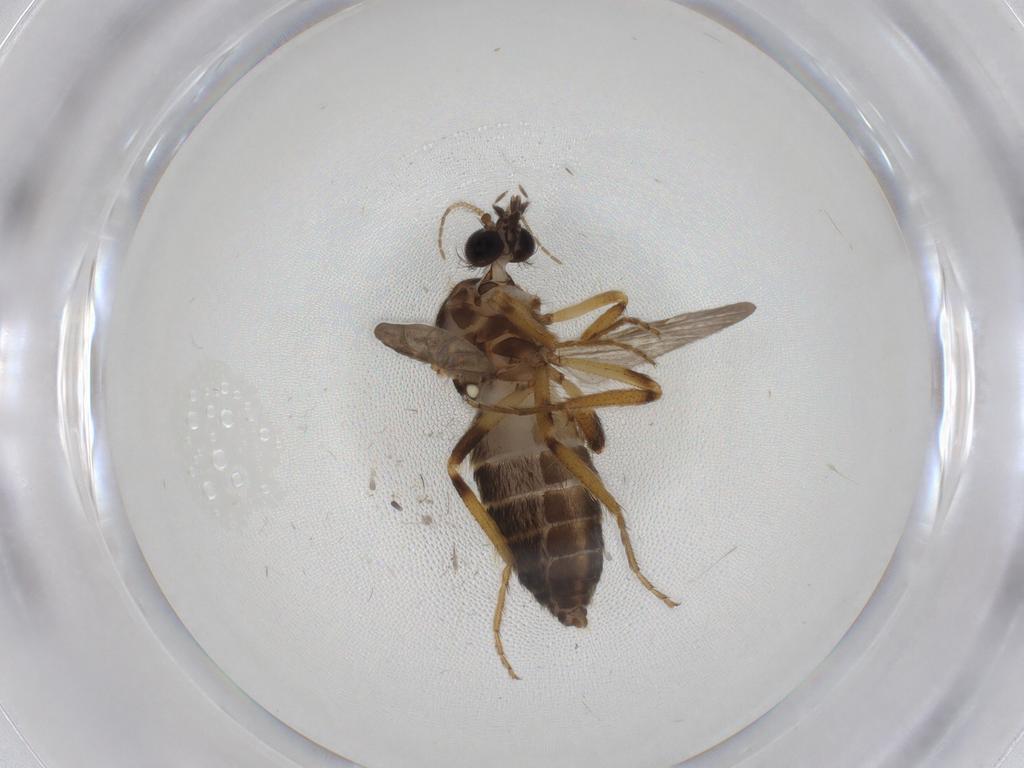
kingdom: Animalia
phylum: Arthropoda
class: Insecta
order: Diptera
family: Ceratopogonidae
